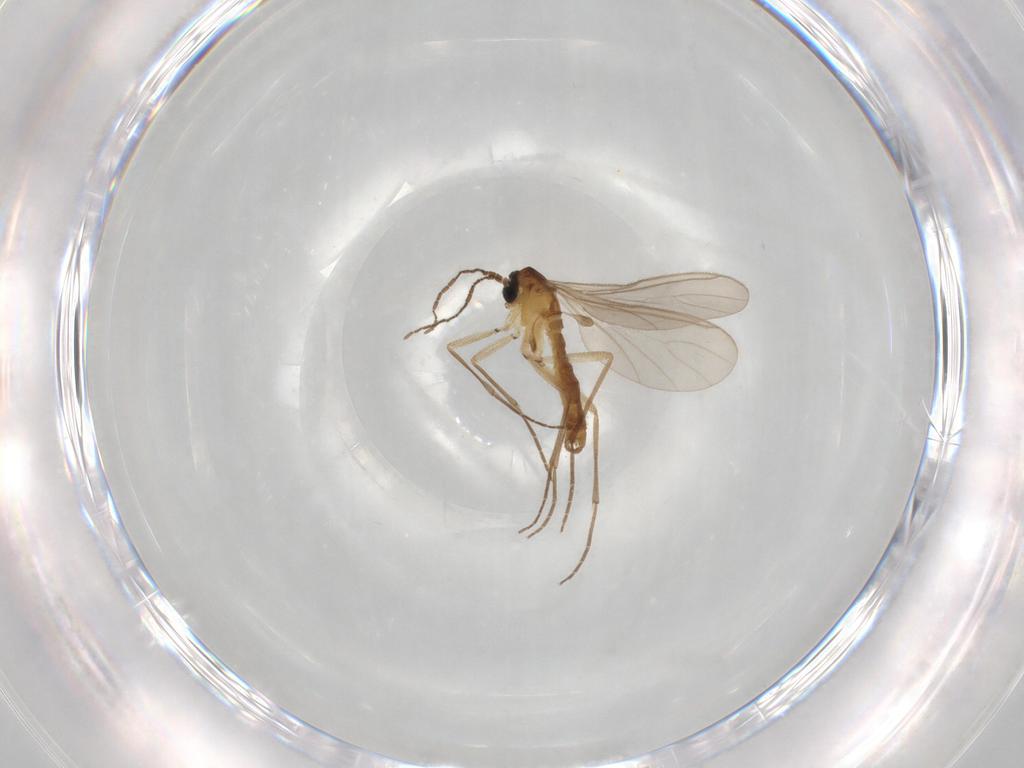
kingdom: Animalia
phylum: Arthropoda
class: Insecta
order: Diptera
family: Sciaridae
